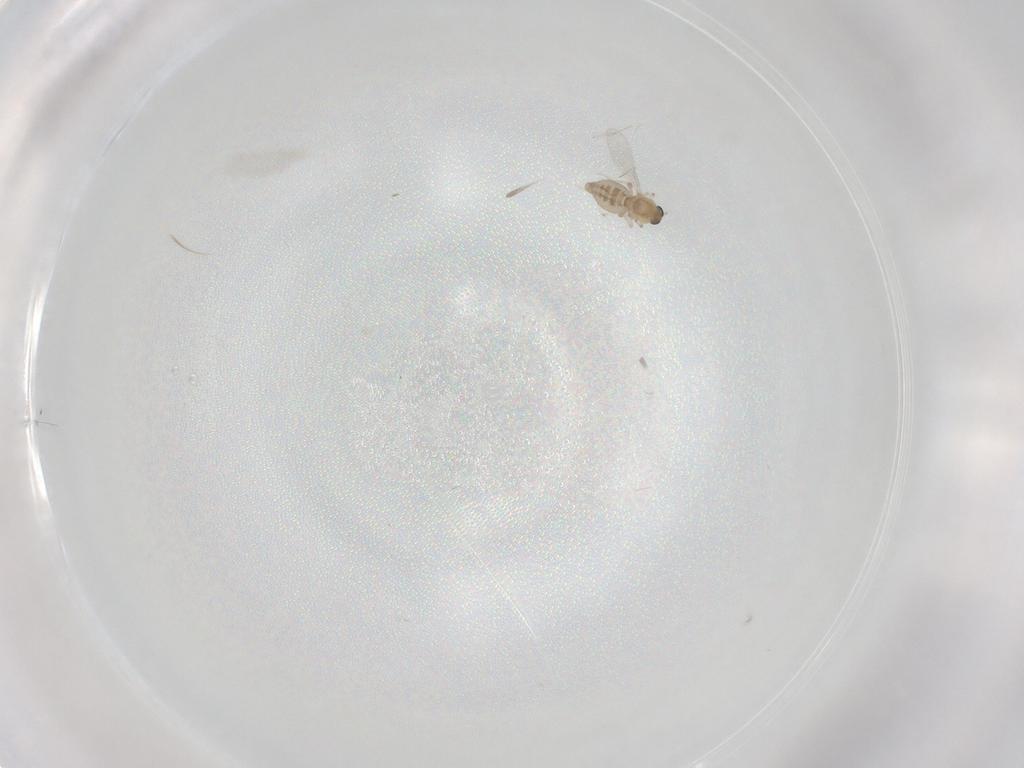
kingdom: Animalia
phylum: Arthropoda
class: Insecta
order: Diptera
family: Ceratopogonidae
